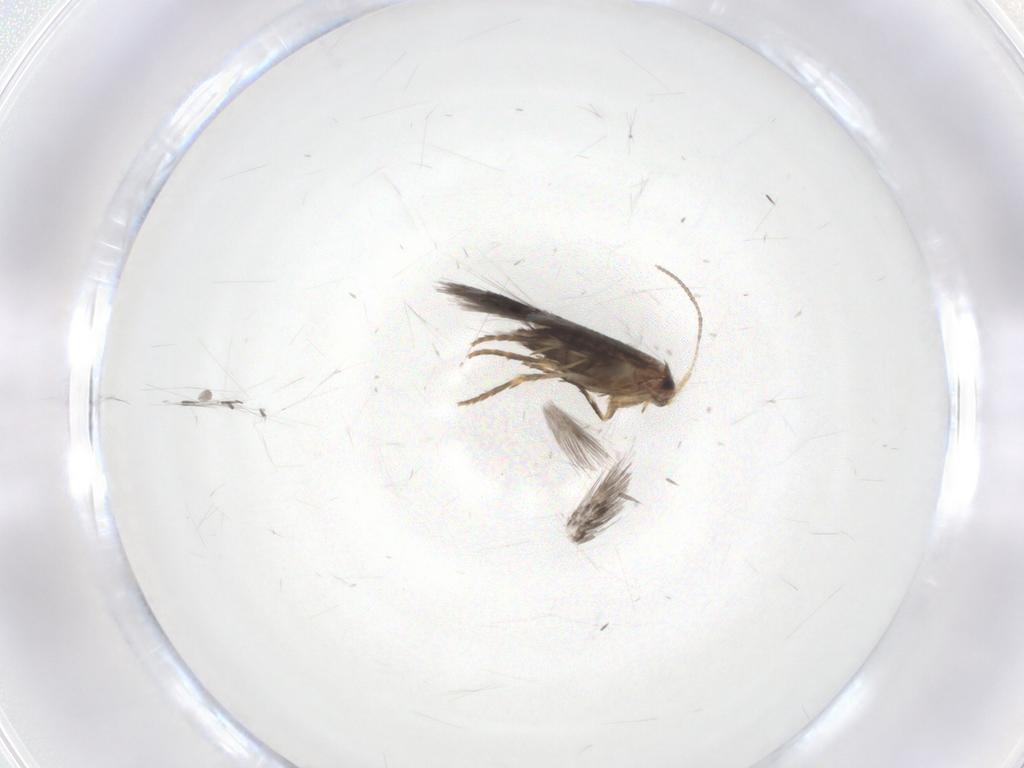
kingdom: Animalia
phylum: Arthropoda
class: Insecta
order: Lepidoptera
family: Nepticulidae
